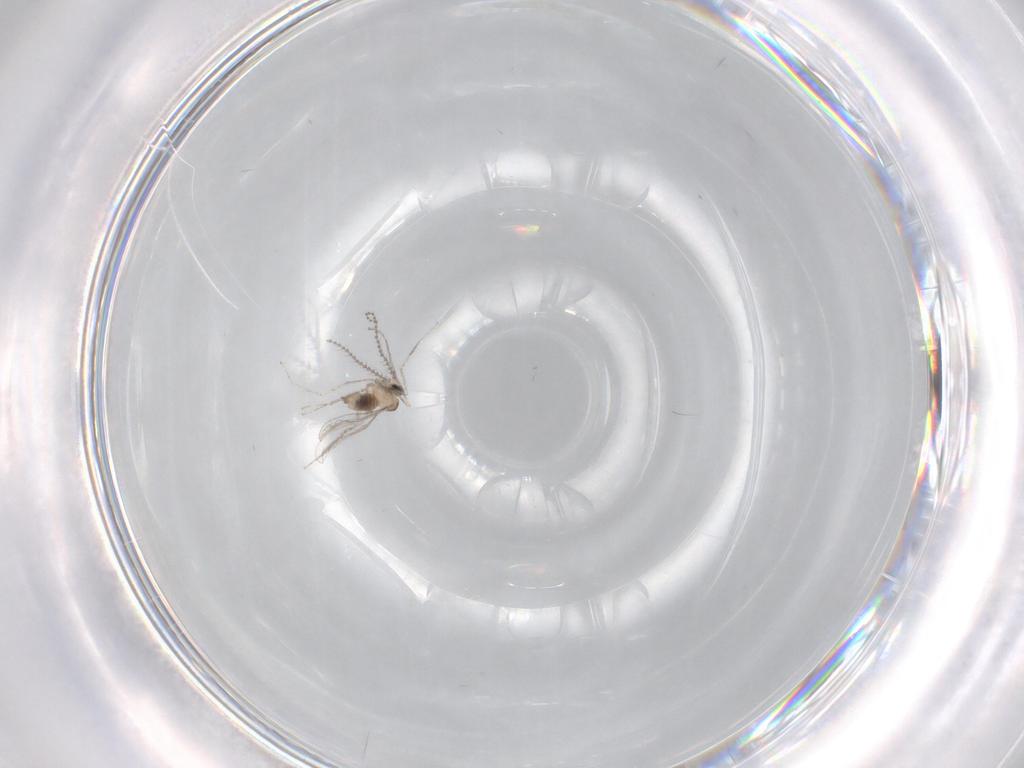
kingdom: Animalia
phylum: Arthropoda
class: Insecta
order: Diptera
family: Cecidomyiidae
